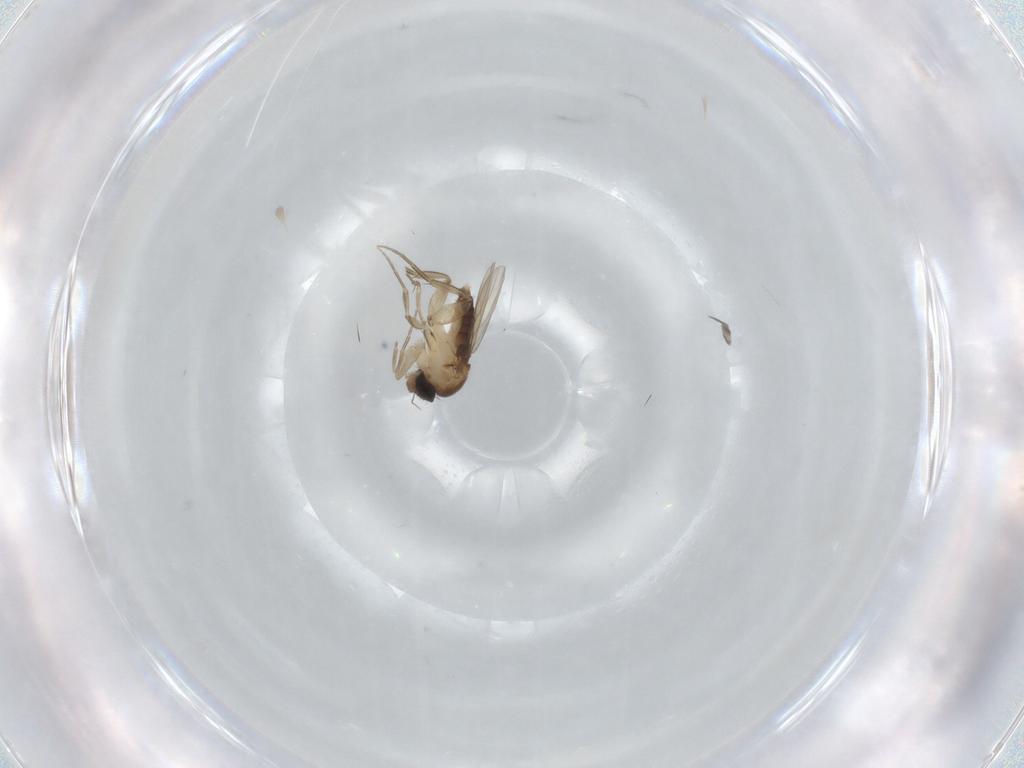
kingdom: Animalia
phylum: Arthropoda
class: Insecta
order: Diptera
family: Phoridae
